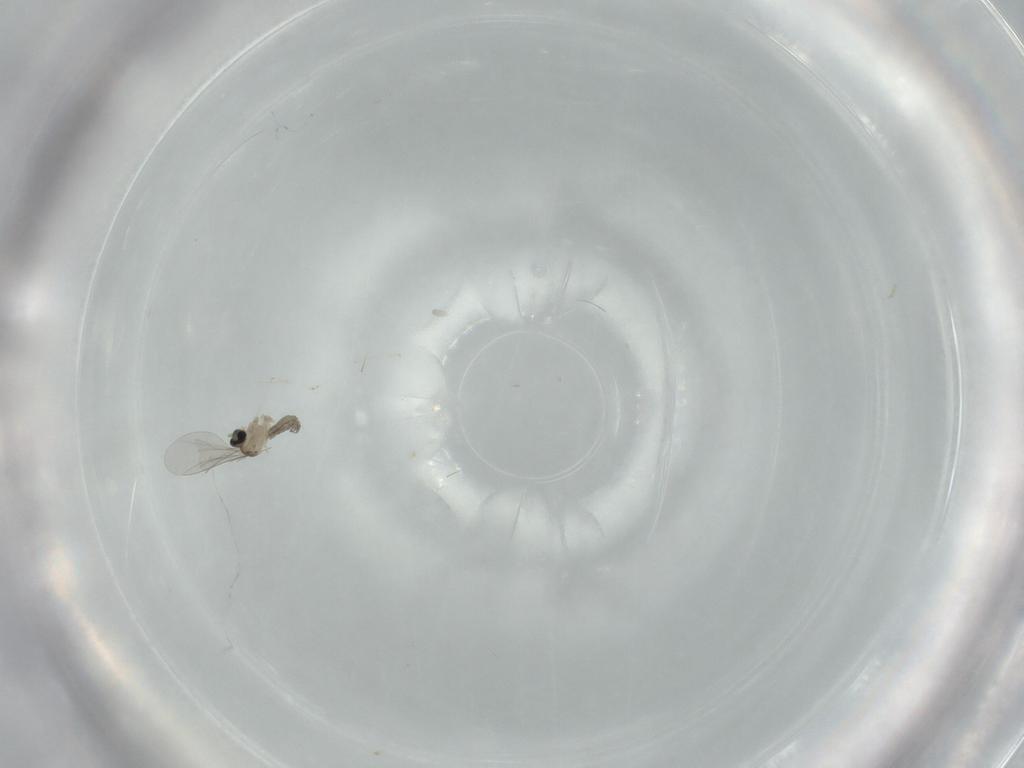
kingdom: Animalia
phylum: Arthropoda
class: Insecta
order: Diptera
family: Cecidomyiidae
